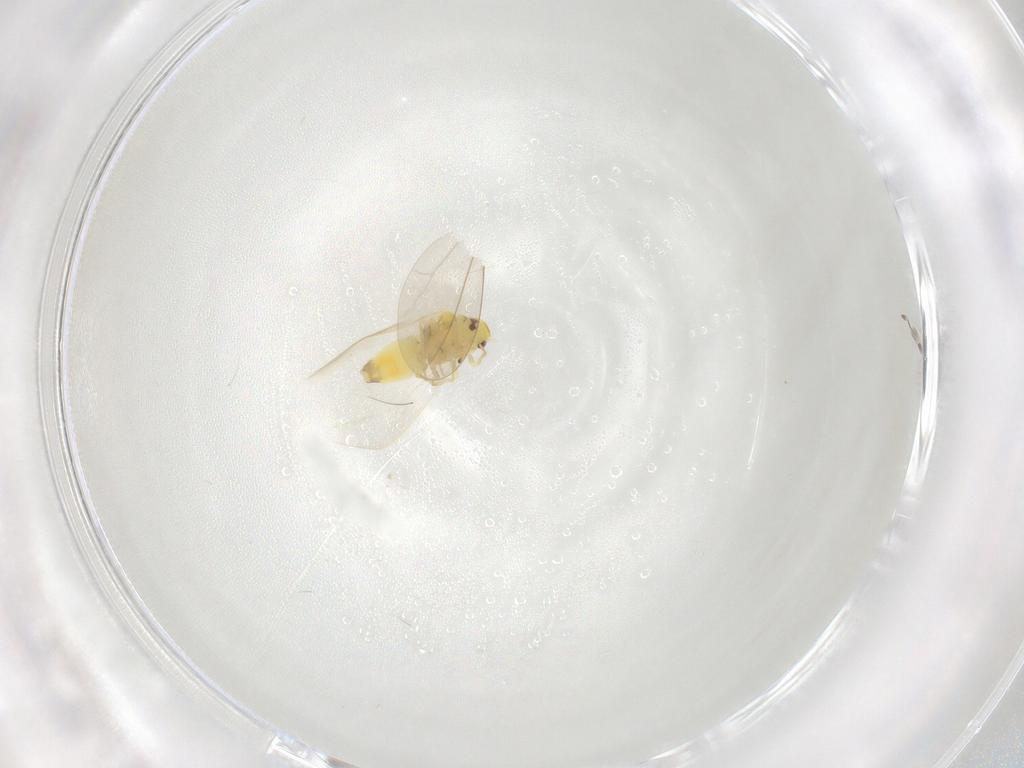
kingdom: Animalia
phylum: Arthropoda
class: Insecta
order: Hemiptera
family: Aleyrodidae
